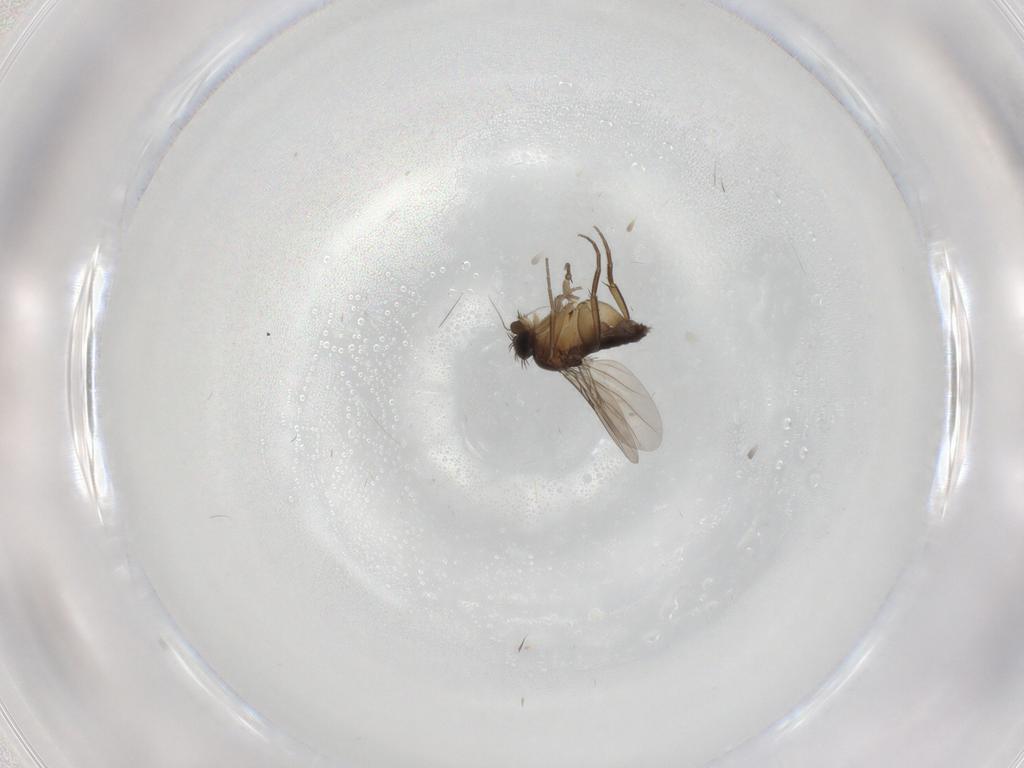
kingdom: Animalia
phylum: Arthropoda
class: Insecta
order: Diptera
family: Phoridae
